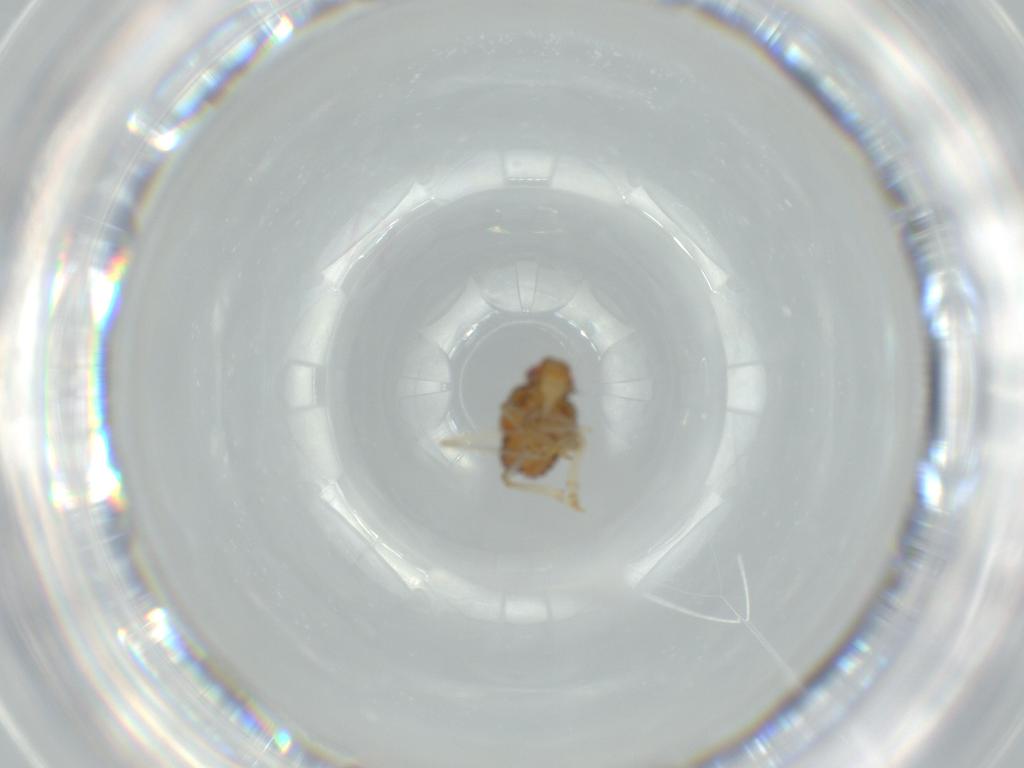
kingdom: Animalia
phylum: Arthropoda
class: Insecta
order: Hemiptera
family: Issidae
